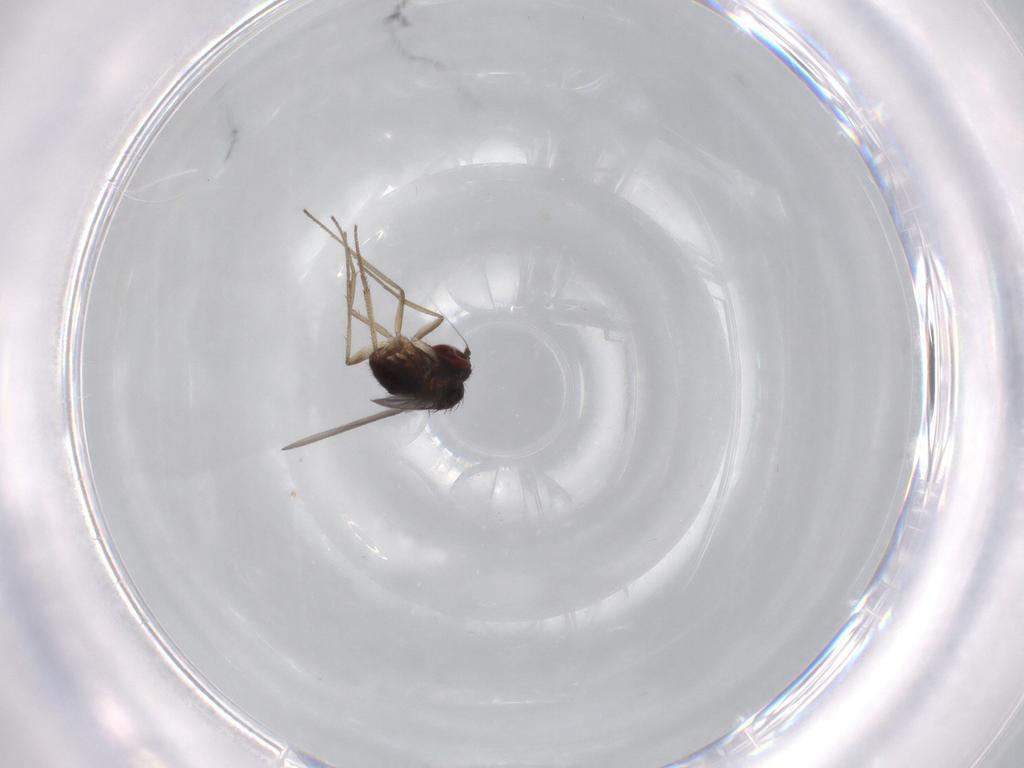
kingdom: Animalia
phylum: Arthropoda
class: Insecta
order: Diptera
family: Dolichopodidae
